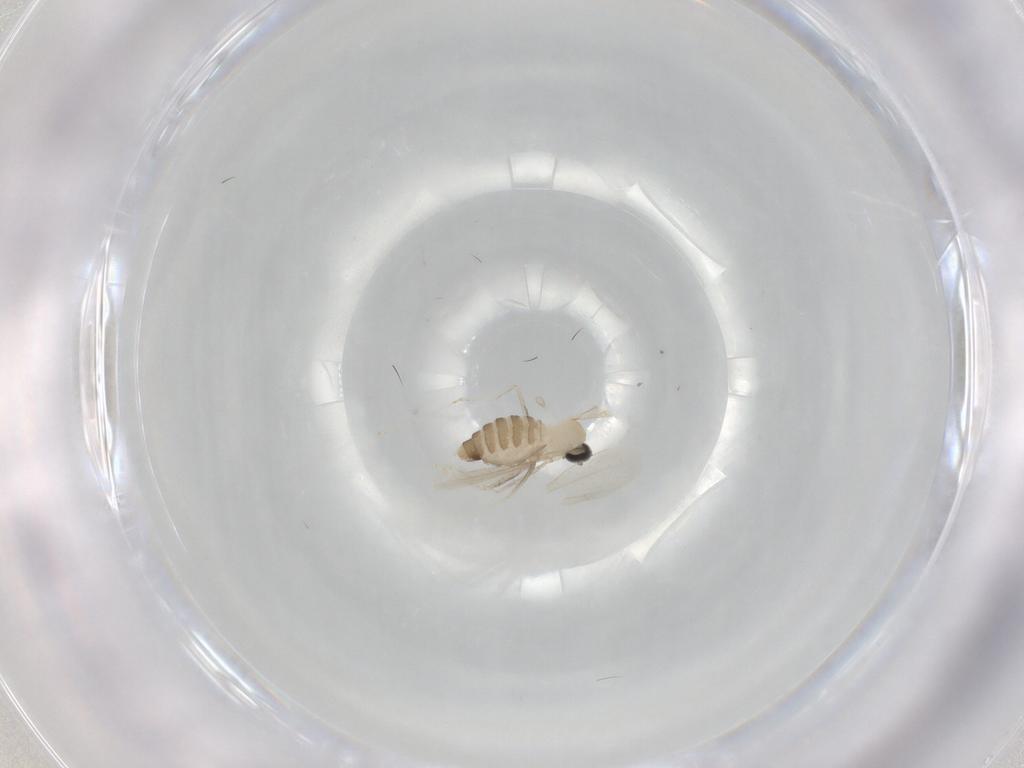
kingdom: Animalia
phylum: Arthropoda
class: Insecta
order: Diptera
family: Cecidomyiidae
